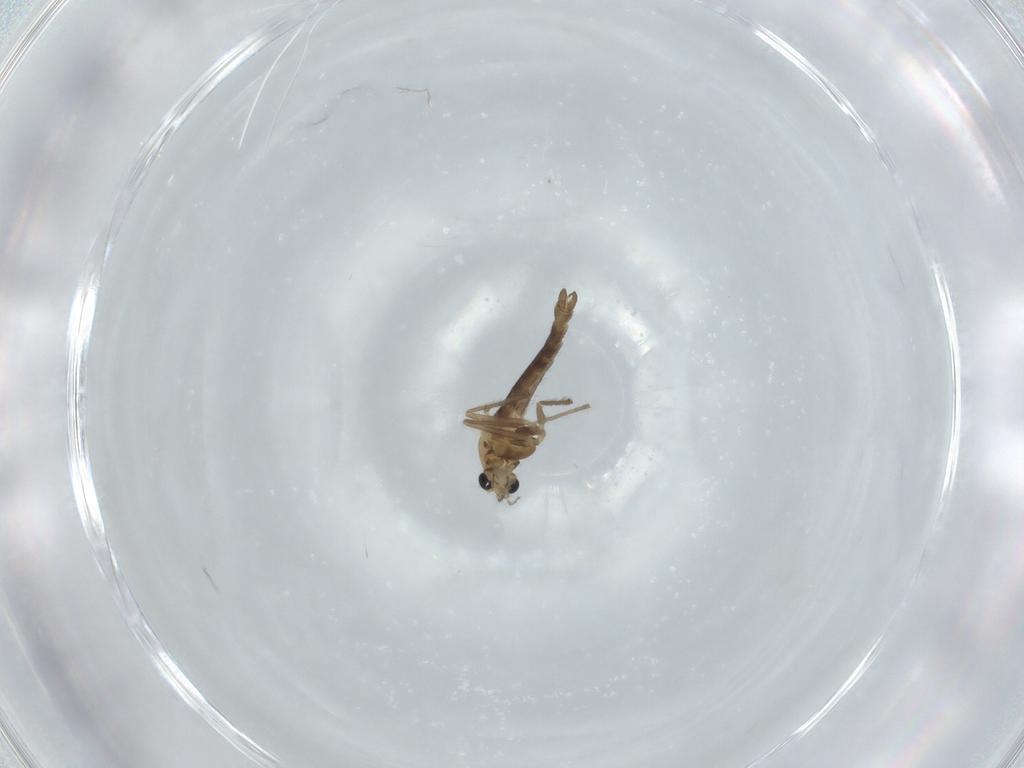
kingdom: Animalia
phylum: Arthropoda
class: Insecta
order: Diptera
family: Chironomidae
